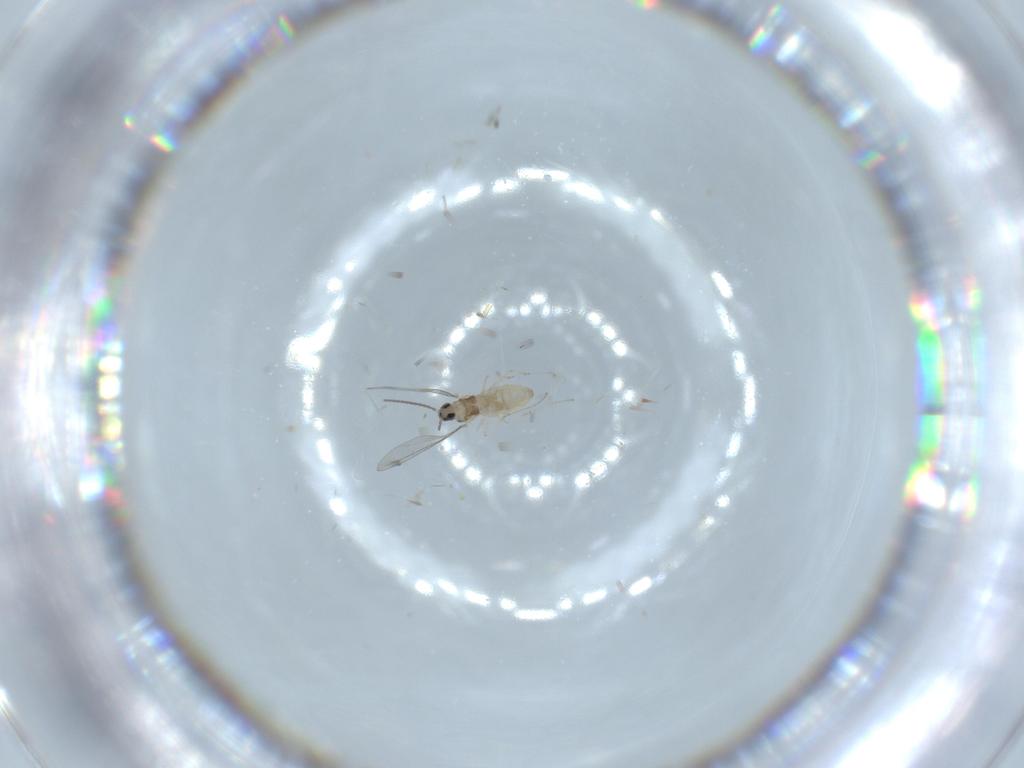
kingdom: Animalia
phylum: Arthropoda
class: Insecta
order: Diptera
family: Cecidomyiidae
